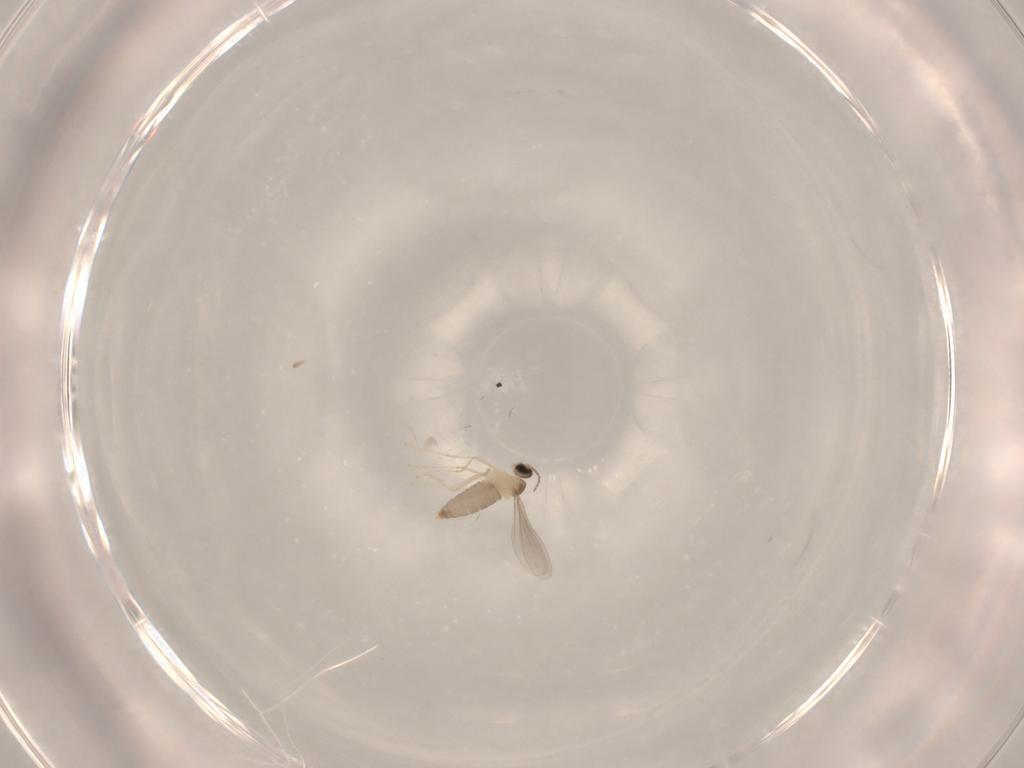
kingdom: Animalia
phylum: Arthropoda
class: Insecta
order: Diptera
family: Cecidomyiidae
